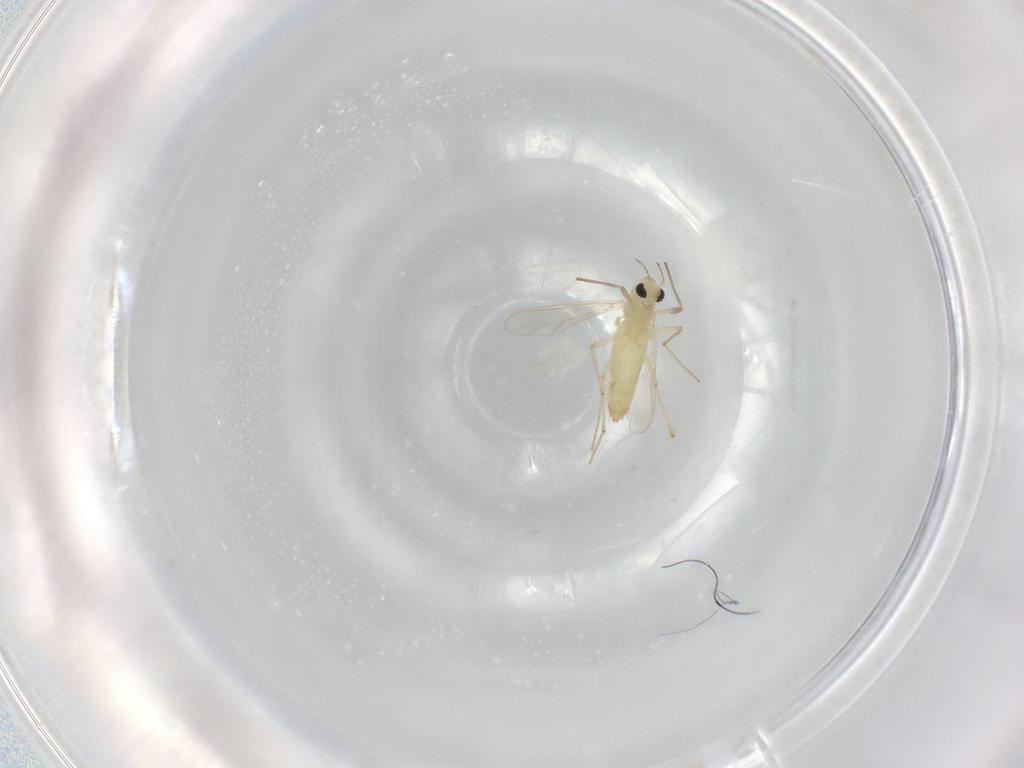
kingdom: Animalia
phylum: Arthropoda
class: Insecta
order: Diptera
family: Chironomidae
